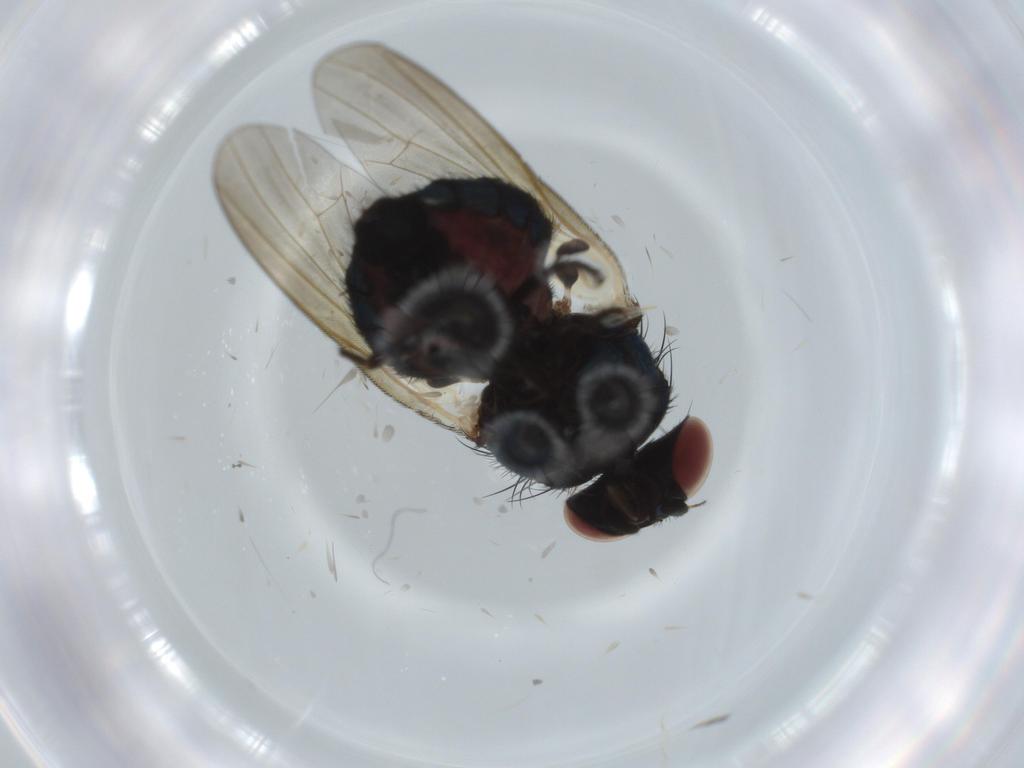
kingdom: Animalia
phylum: Arthropoda
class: Insecta
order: Diptera
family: Lonchaeidae
